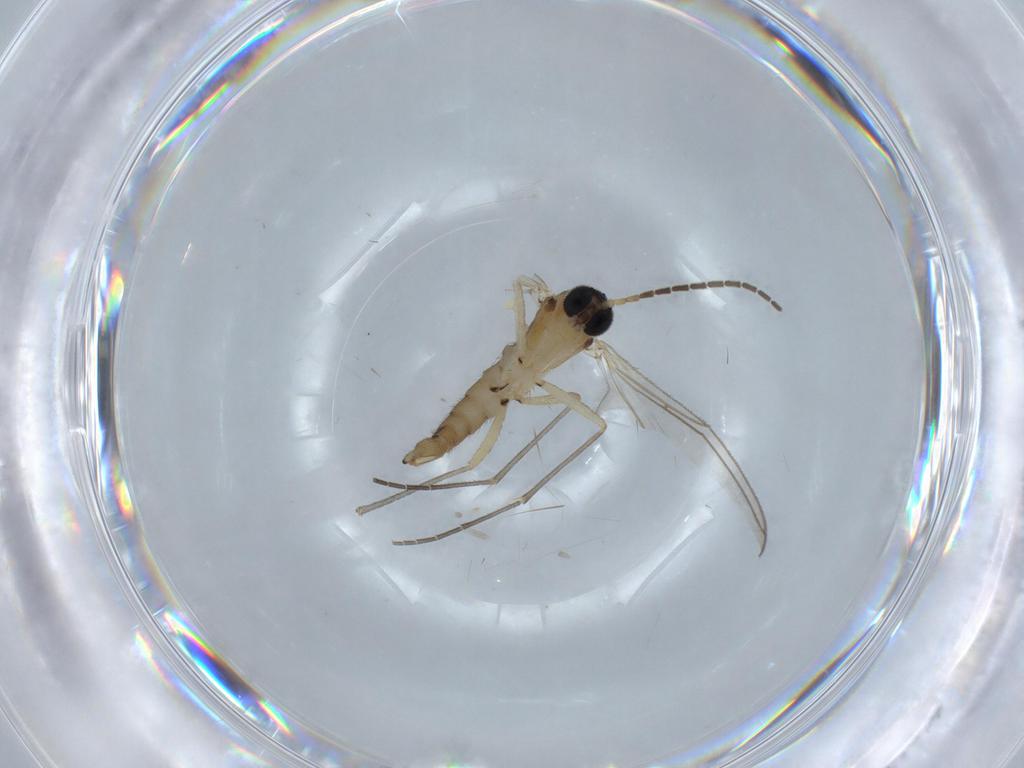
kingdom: Animalia
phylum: Arthropoda
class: Insecta
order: Diptera
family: Sciaridae
